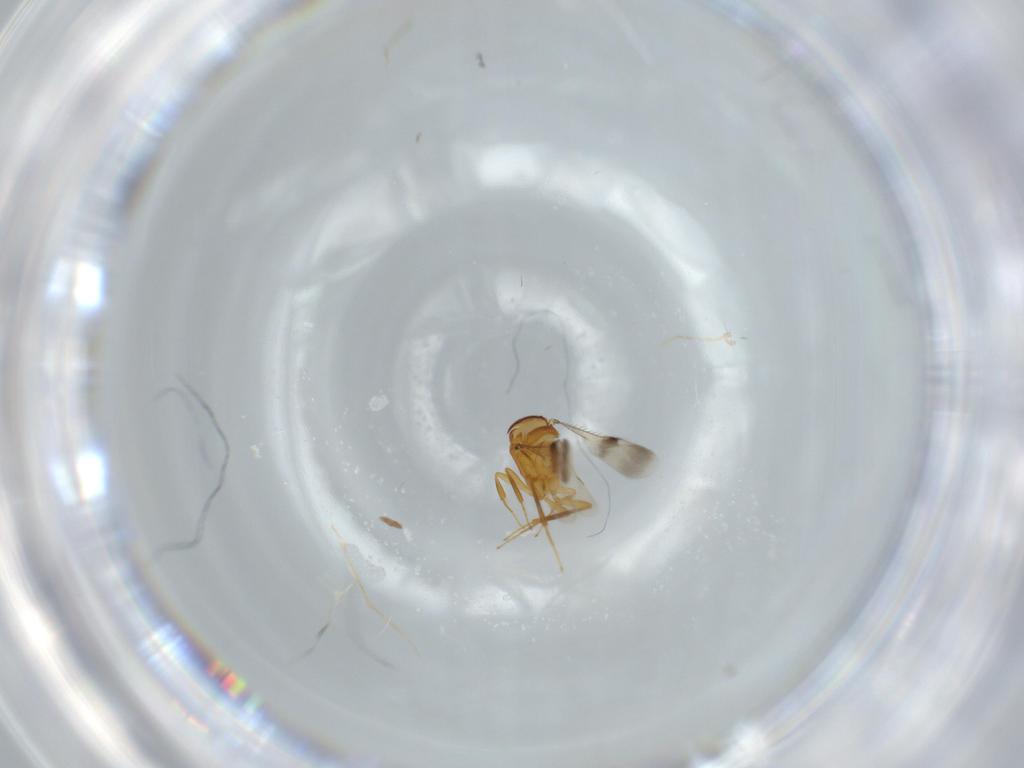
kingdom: Animalia
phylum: Arthropoda
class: Insecta
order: Hymenoptera
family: Scelionidae
